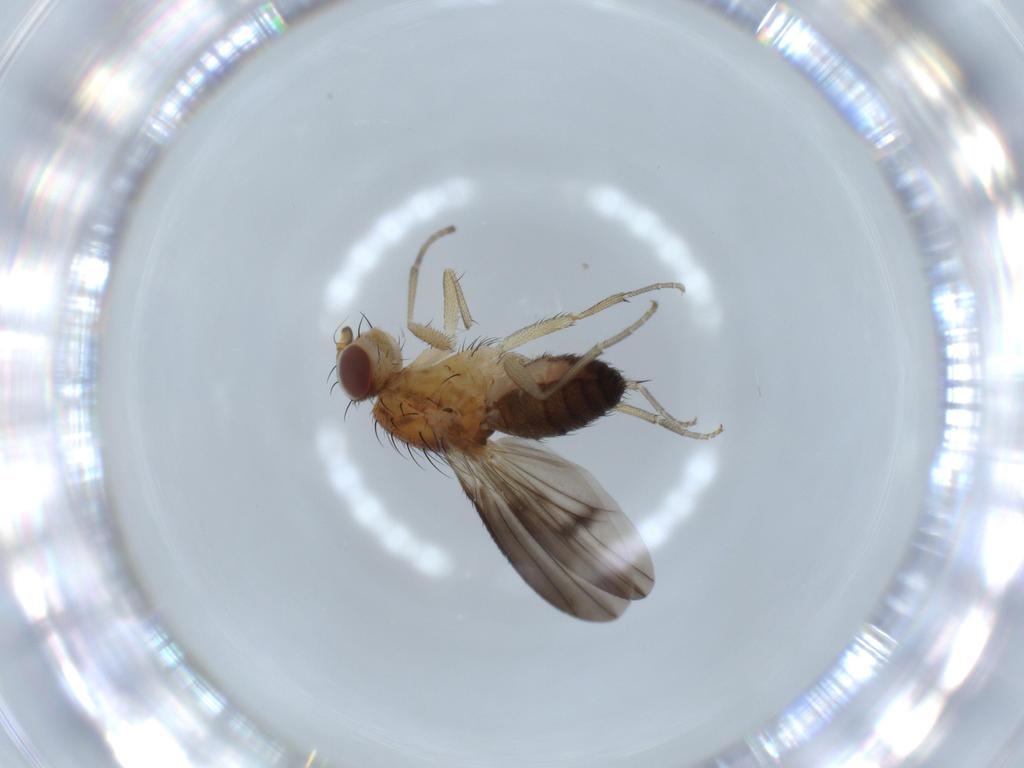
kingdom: Animalia
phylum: Arthropoda
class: Insecta
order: Diptera
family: Heleomyzidae
